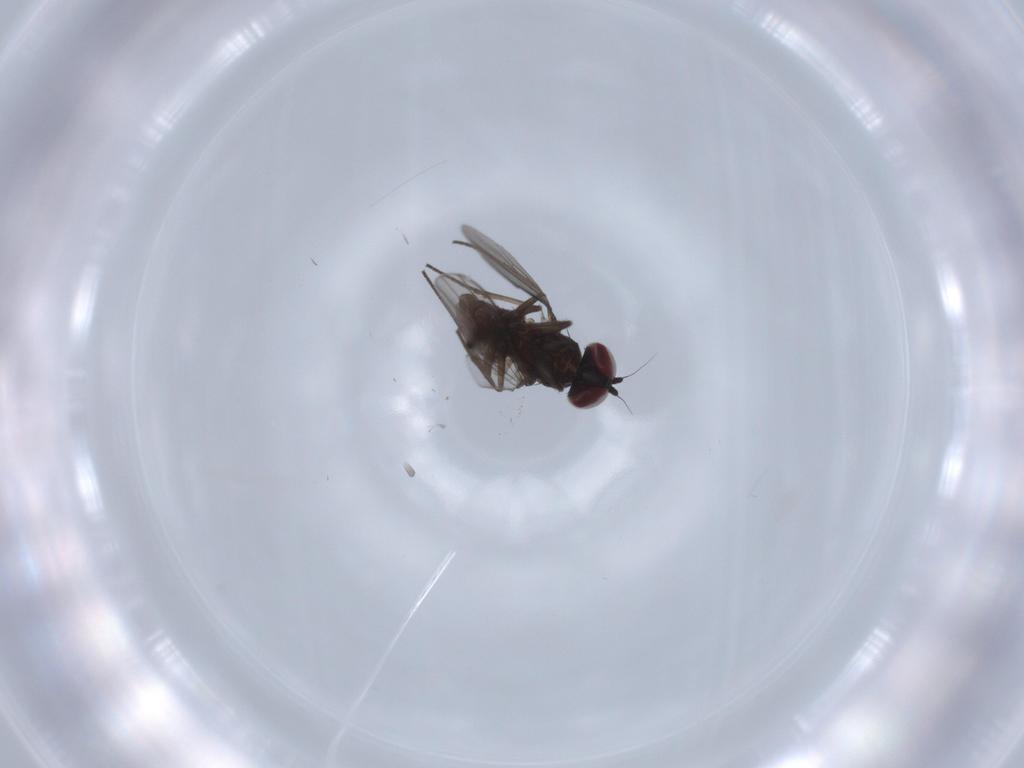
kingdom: Animalia
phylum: Arthropoda
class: Insecta
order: Diptera
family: Dolichopodidae
